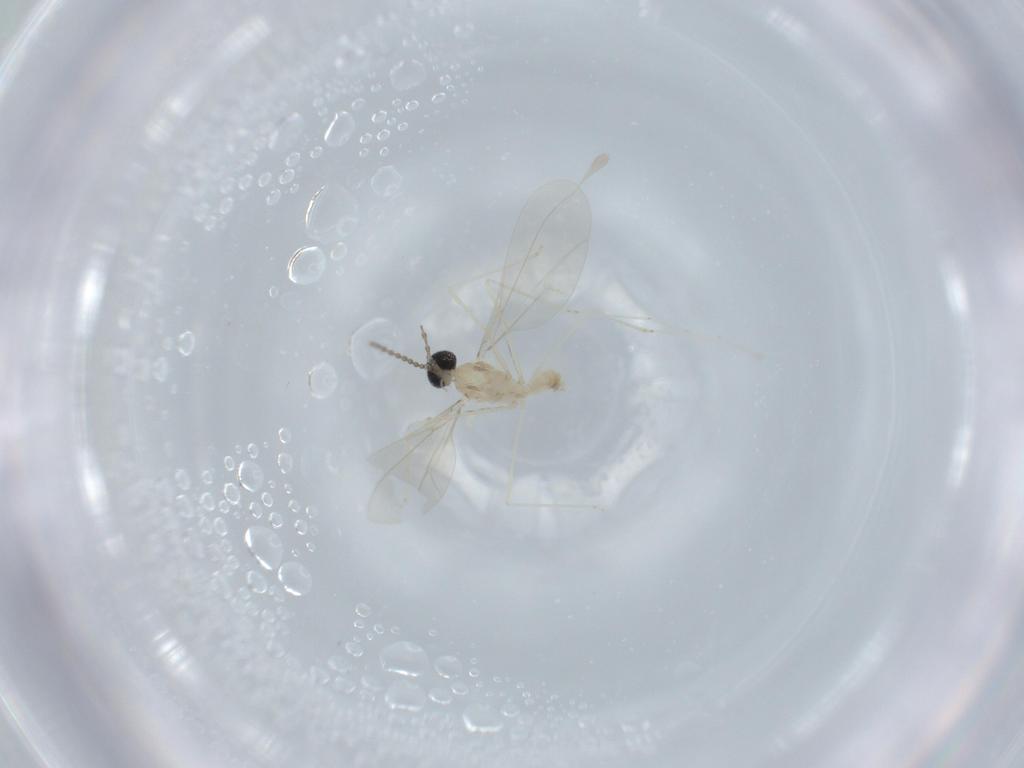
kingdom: Animalia
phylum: Arthropoda
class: Insecta
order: Diptera
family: Cecidomyiidae
